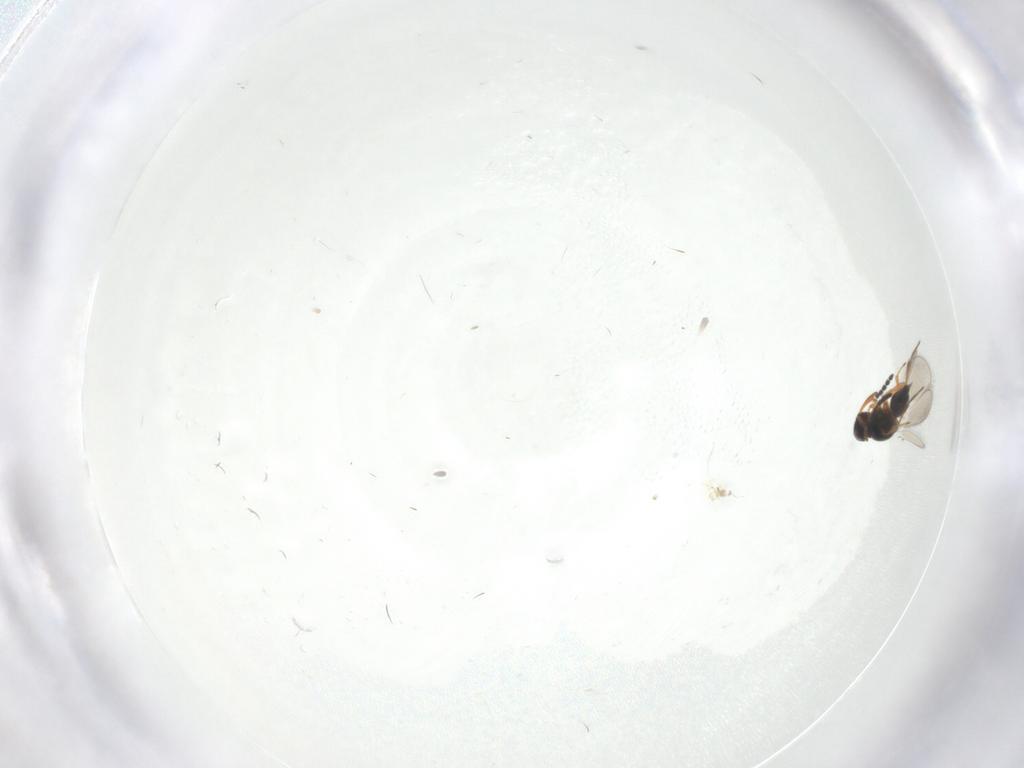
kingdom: Animalia
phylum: Arthropoda
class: Insecta
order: Hymenoptera
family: Platygastridae
